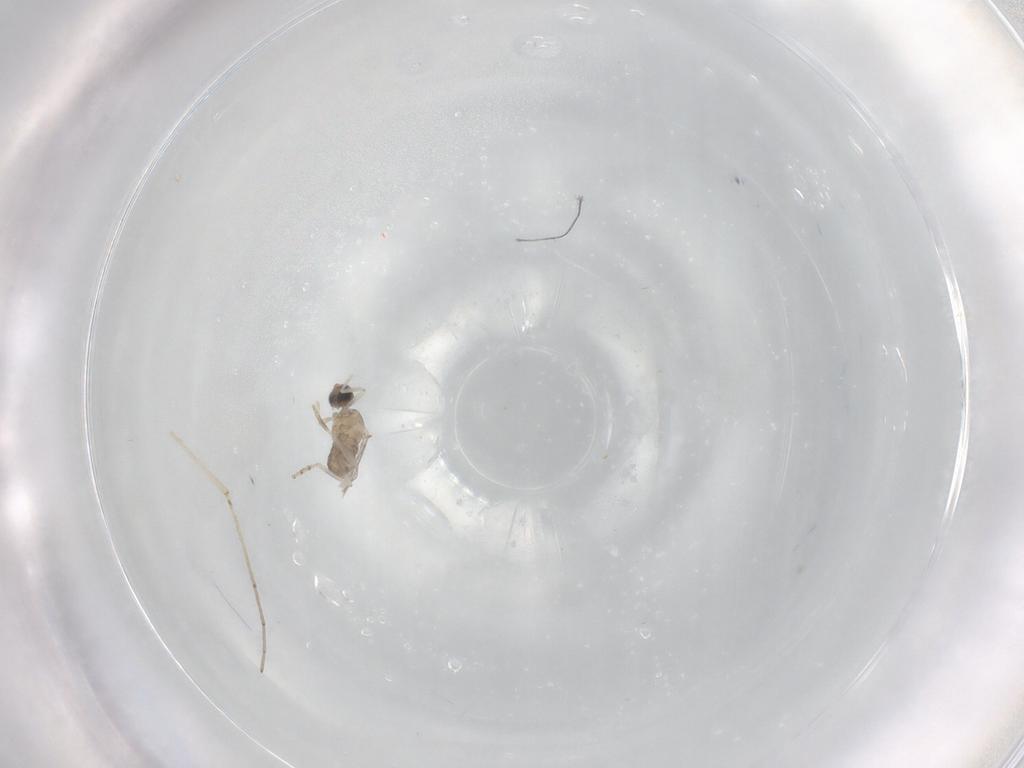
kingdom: Animalia
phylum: Arthropoda
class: Insecta
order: Diptera
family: Cecidomyiidae
